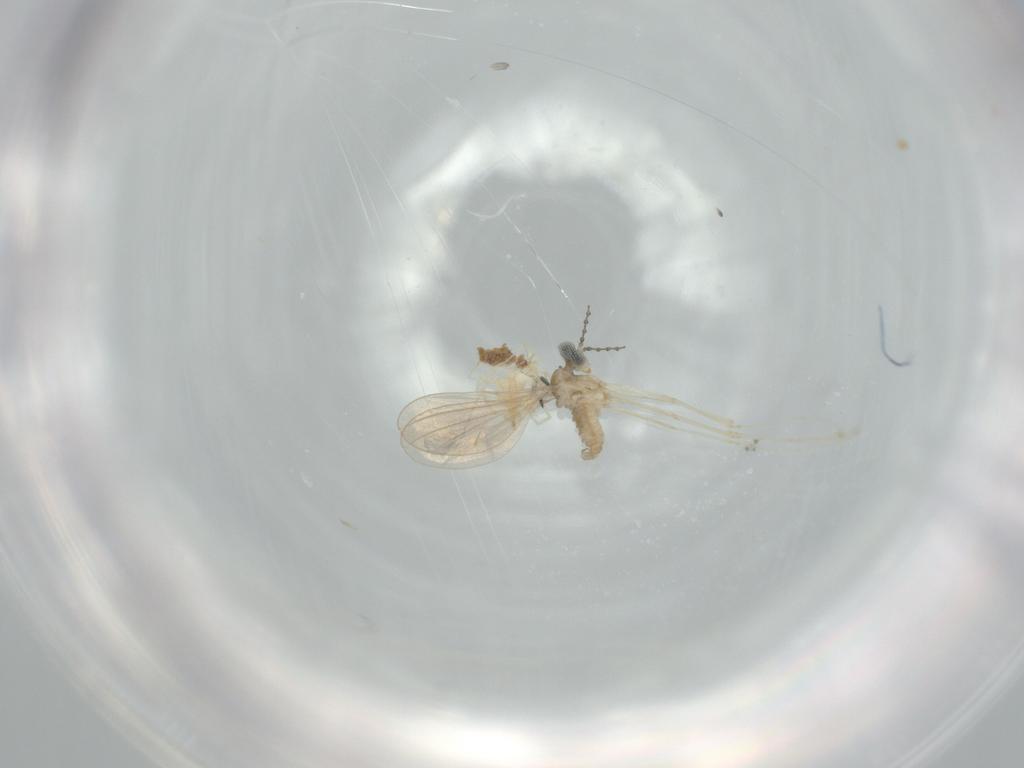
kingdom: Animalia
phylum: Arthropoda
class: Insecta
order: Diptera
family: Cecidomyiidae
